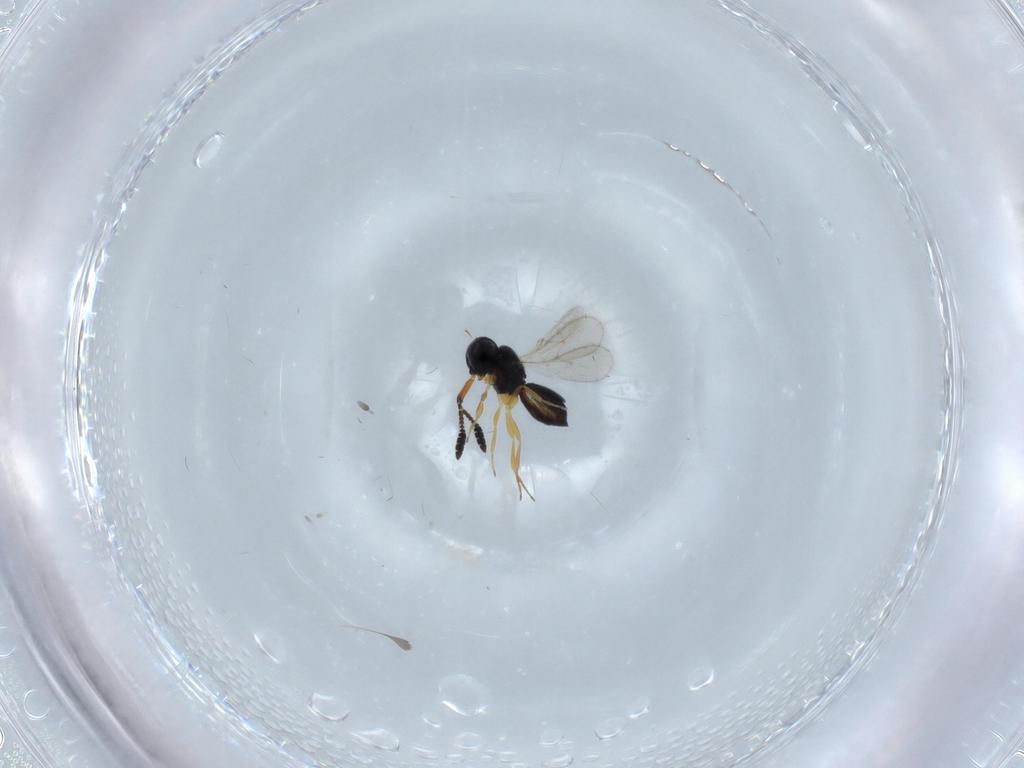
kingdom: Animalia
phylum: Arthropoda
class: Insecta
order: Hymenoptera
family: Scelionidae
